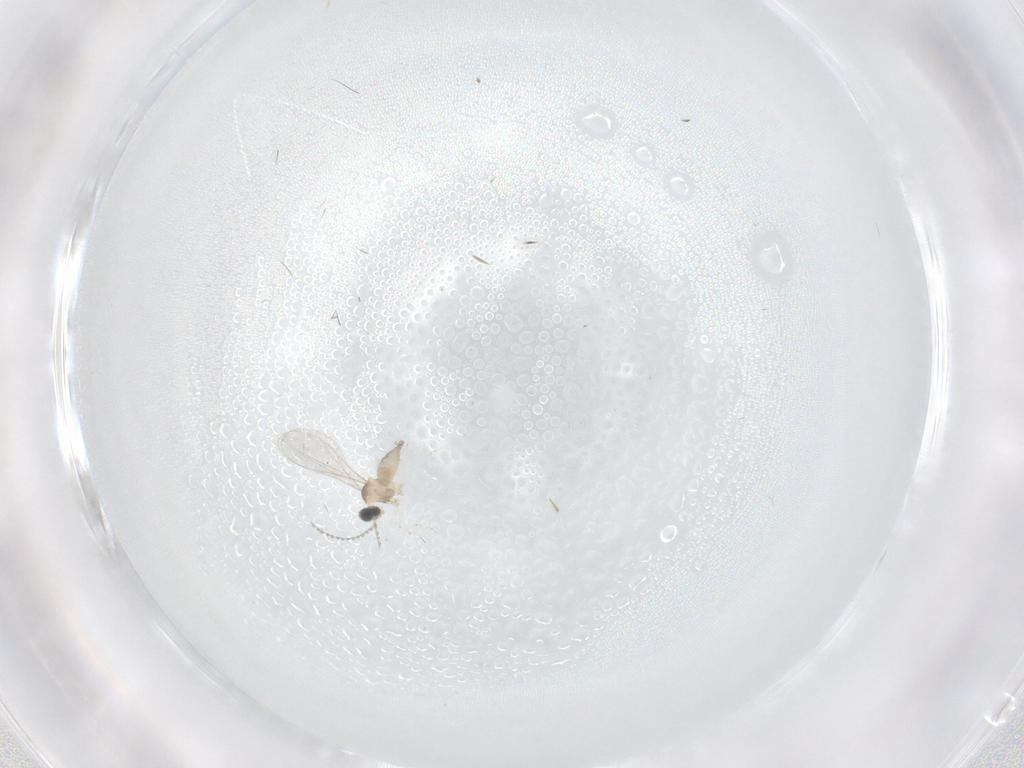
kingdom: Animalia
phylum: Arthropoda
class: Insecta
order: Diptera
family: Cecidomyiidae
